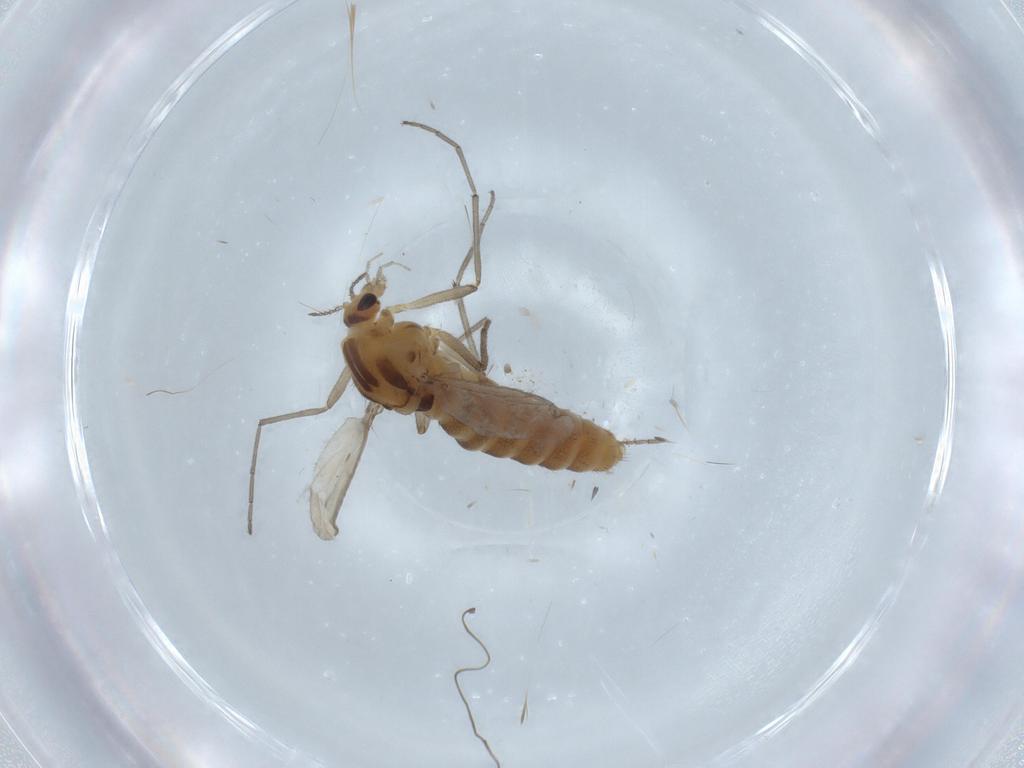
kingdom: Animalia
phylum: Arthropoda
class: Insecta
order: Diptera
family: Chironomidae
